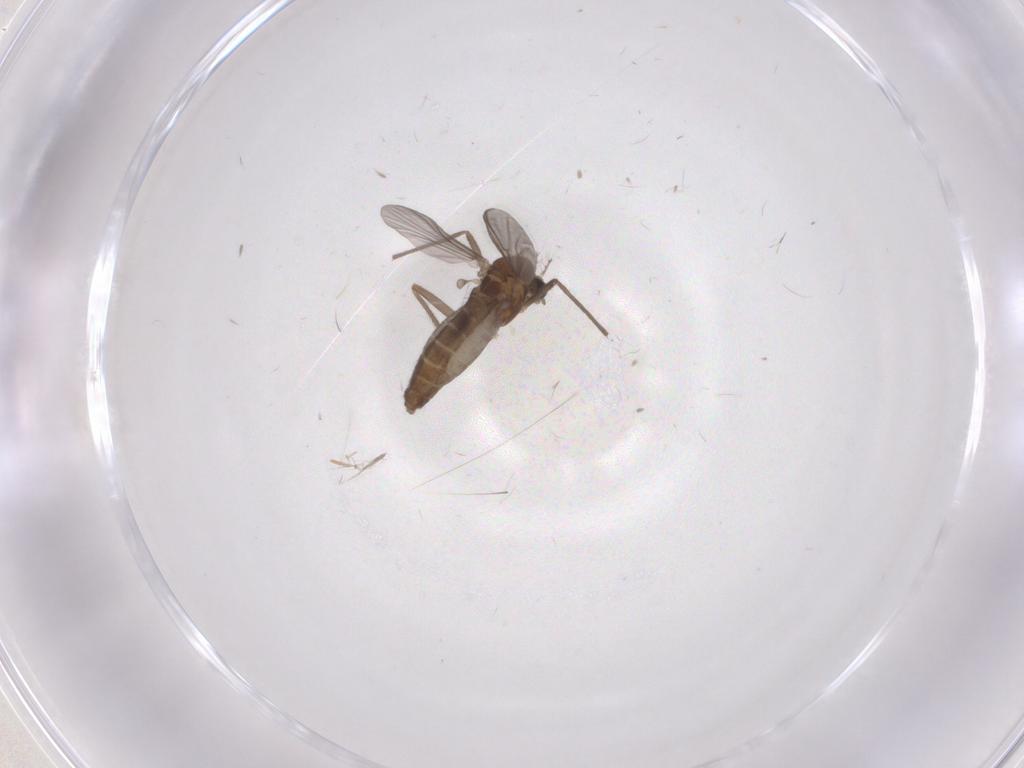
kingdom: Animalia
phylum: Arthropoda
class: Insecta
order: Diptera
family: Chironomidae
